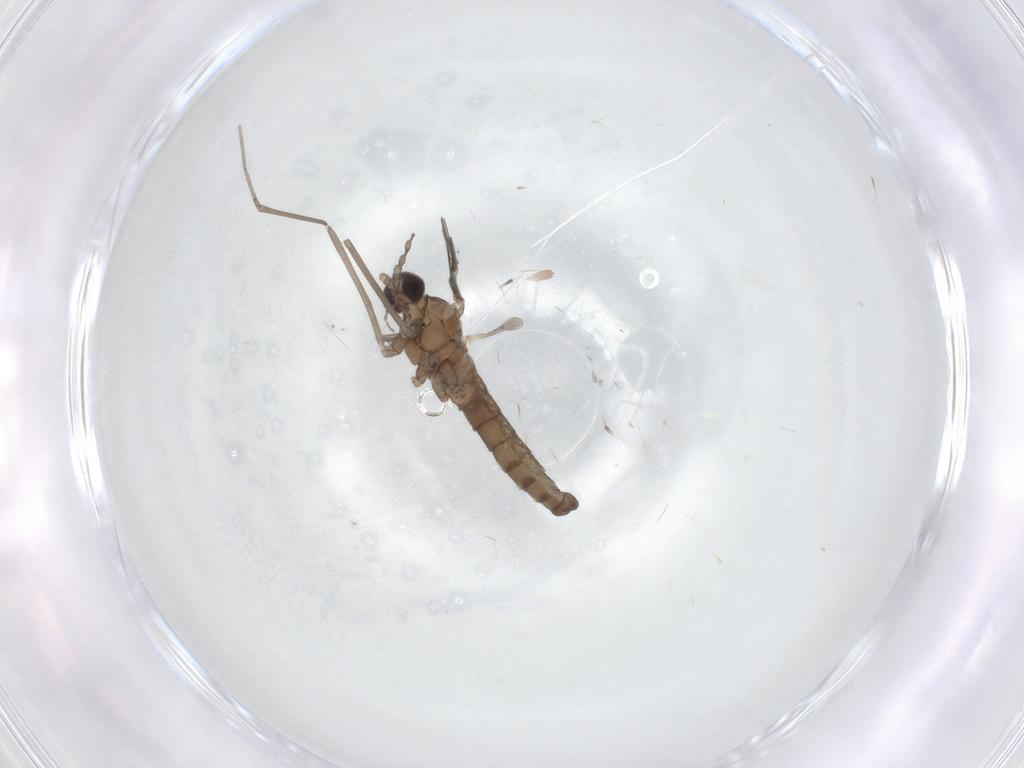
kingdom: Animalia
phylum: Arthropoda
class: Insecta
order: Diptera
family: Cecidomyiidae
